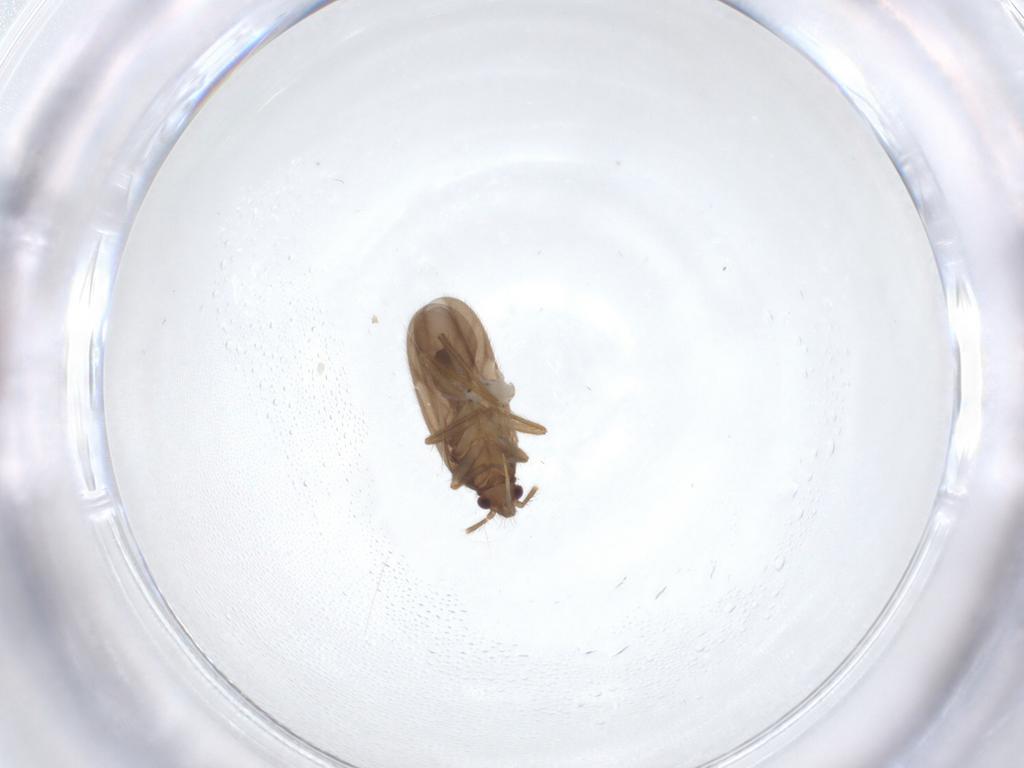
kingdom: Animalia
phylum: Arthropoda
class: Insecta
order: Hemiptera
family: Ceratocombidae
